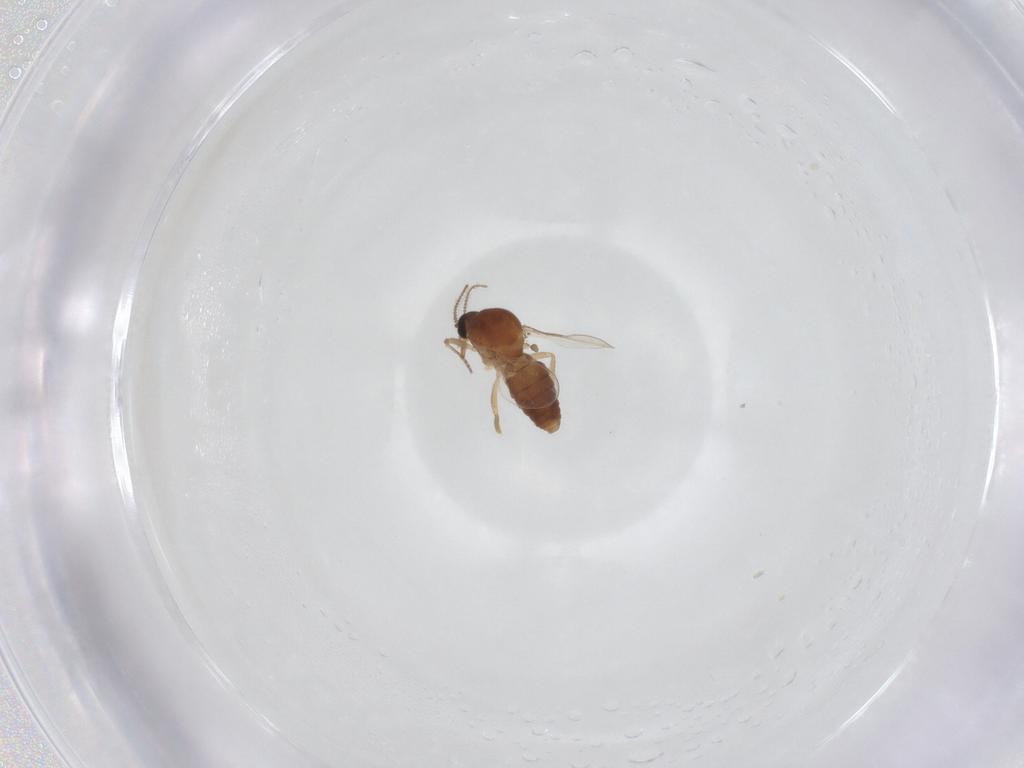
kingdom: Animalia
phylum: Arthropoda
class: Insecta
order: Diptera
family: Ceratopogonidae
